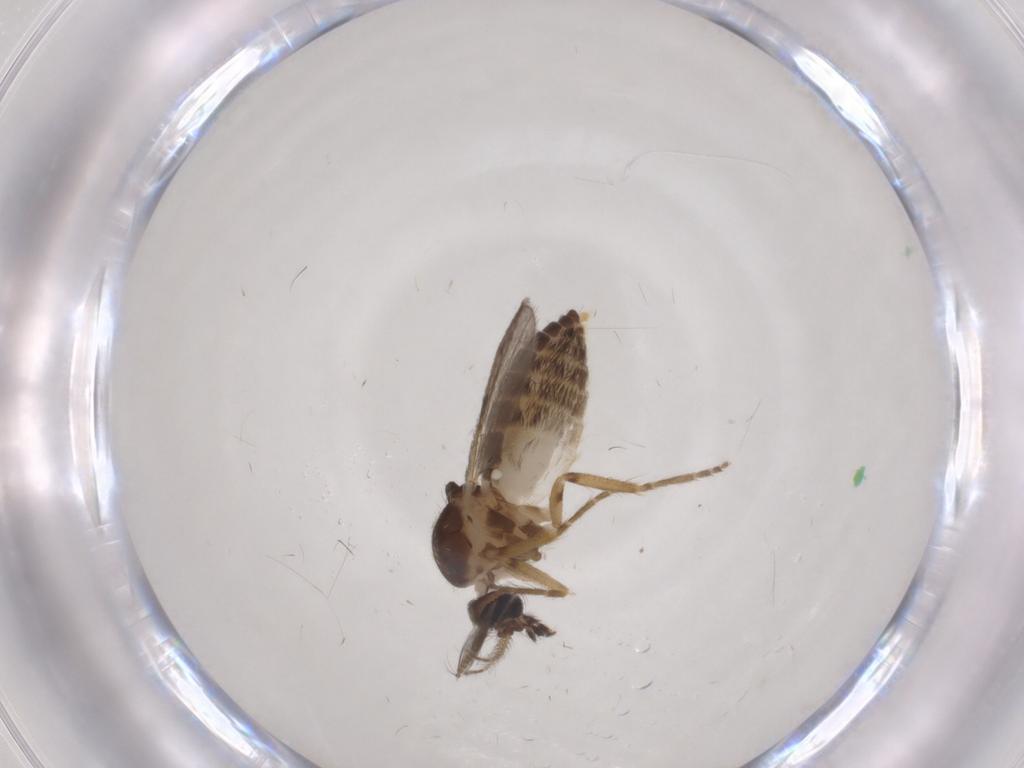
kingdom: Animalia
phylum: Arthropoda
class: Insecta
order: Diptera
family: Ceratopogonidae
